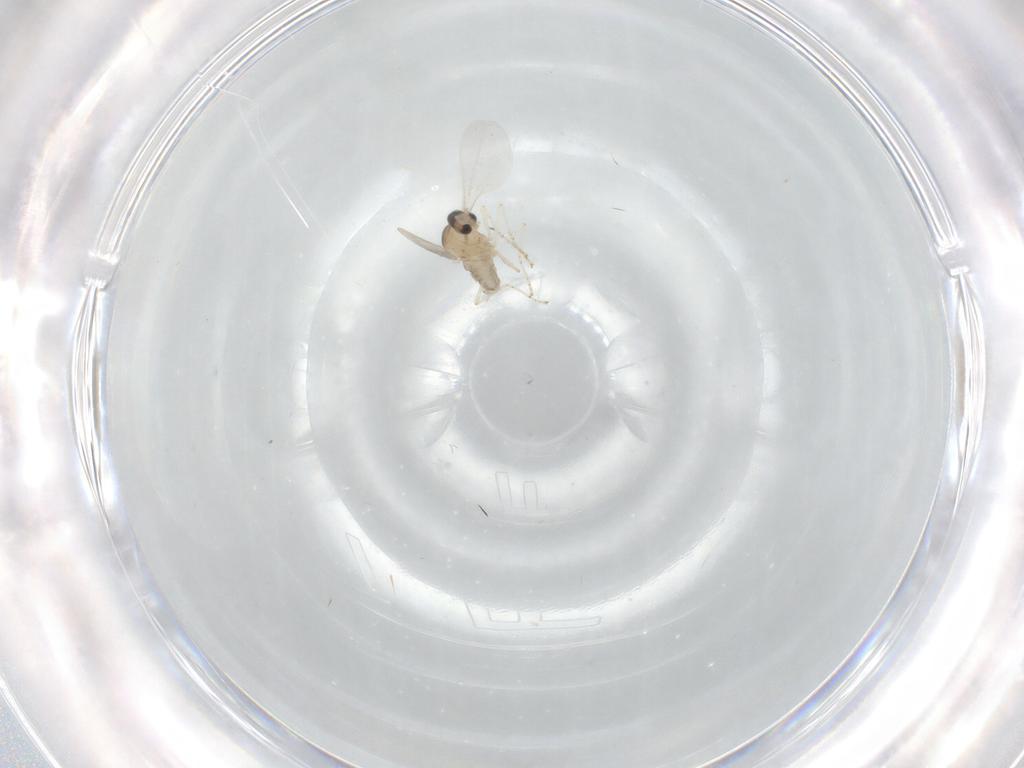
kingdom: Animalia
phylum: Arthropoda
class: Insecta
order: Diptera
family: Cecidomyiidae
